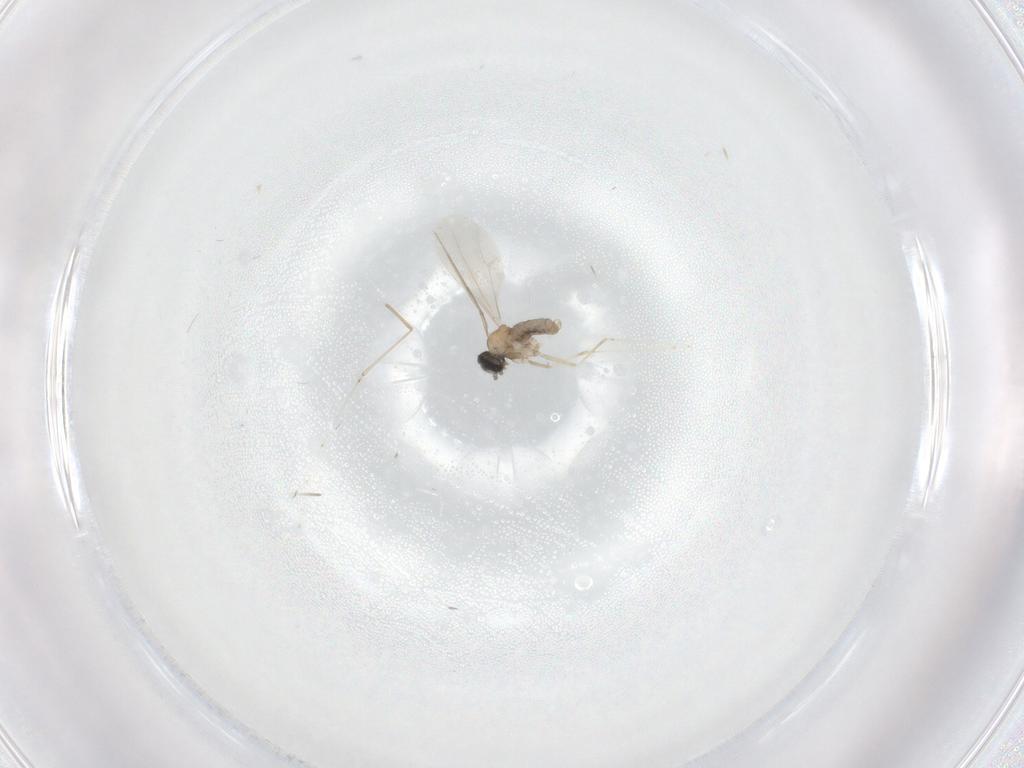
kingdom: Animalia
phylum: Arthropoda
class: Insecta
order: Diptera
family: Cecidomyiidae
